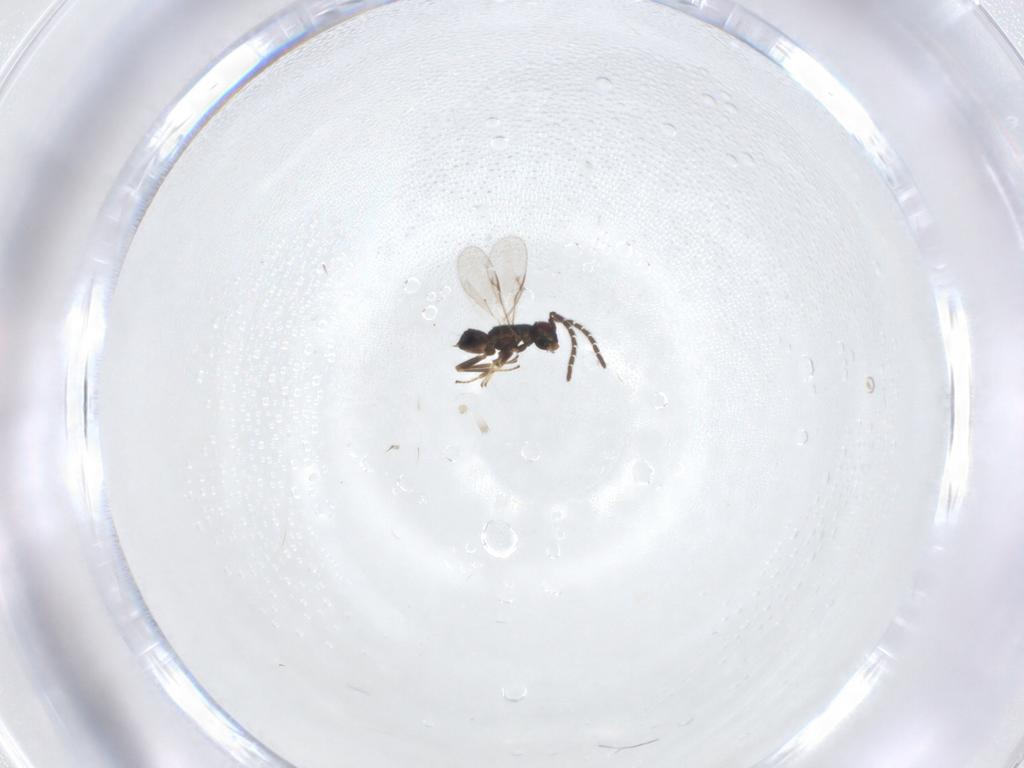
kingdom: Animalia
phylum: Arthropoda
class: Insecta
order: Hymenoptera
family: Encyrtidae
